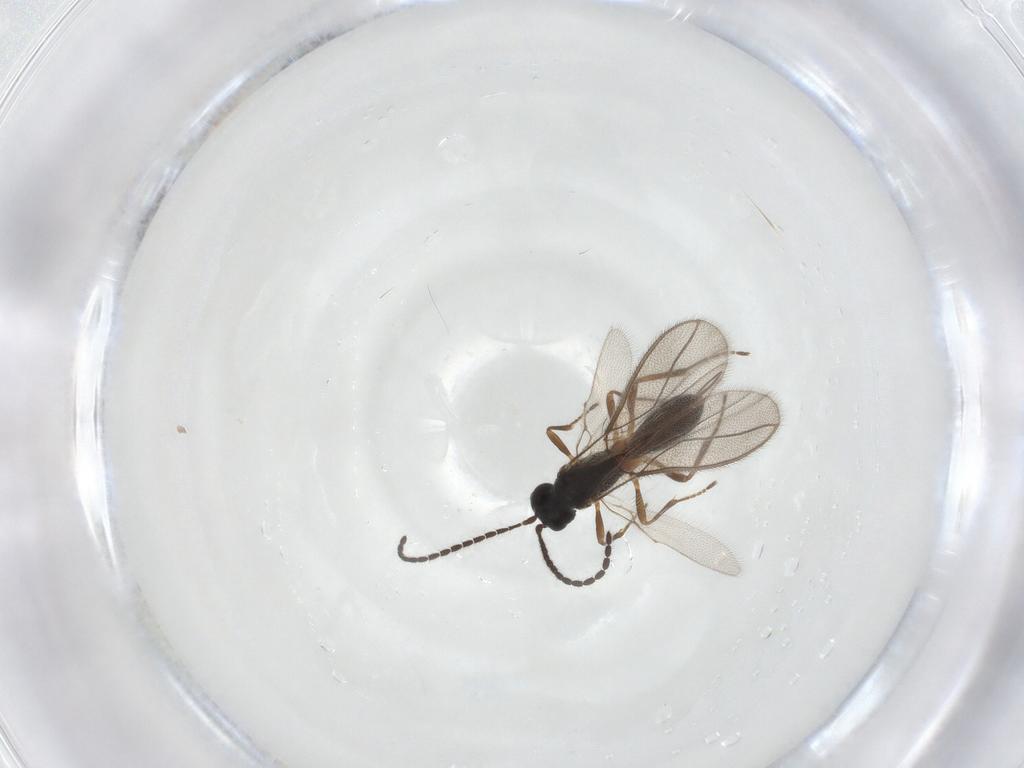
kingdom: Animalia
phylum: Arthropoda
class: Insecta
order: Hymenoptera
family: Braconidae
